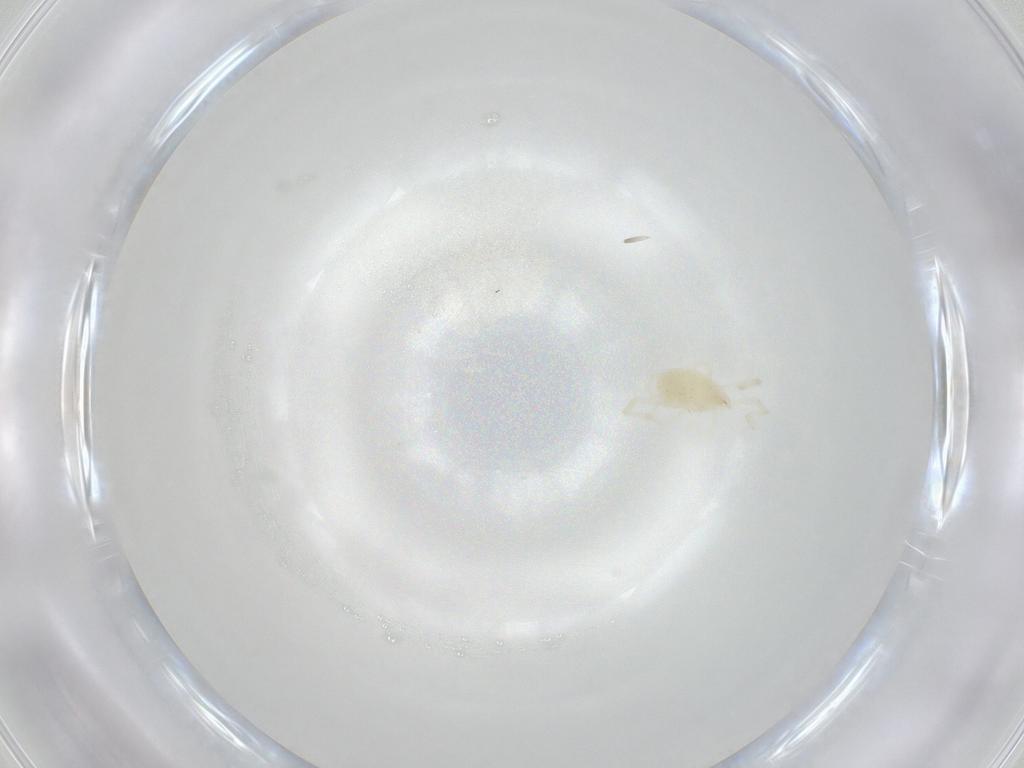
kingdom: Animalia
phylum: Arthropoda
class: Arachnida
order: Trombidiformes
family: Erythraeidae
